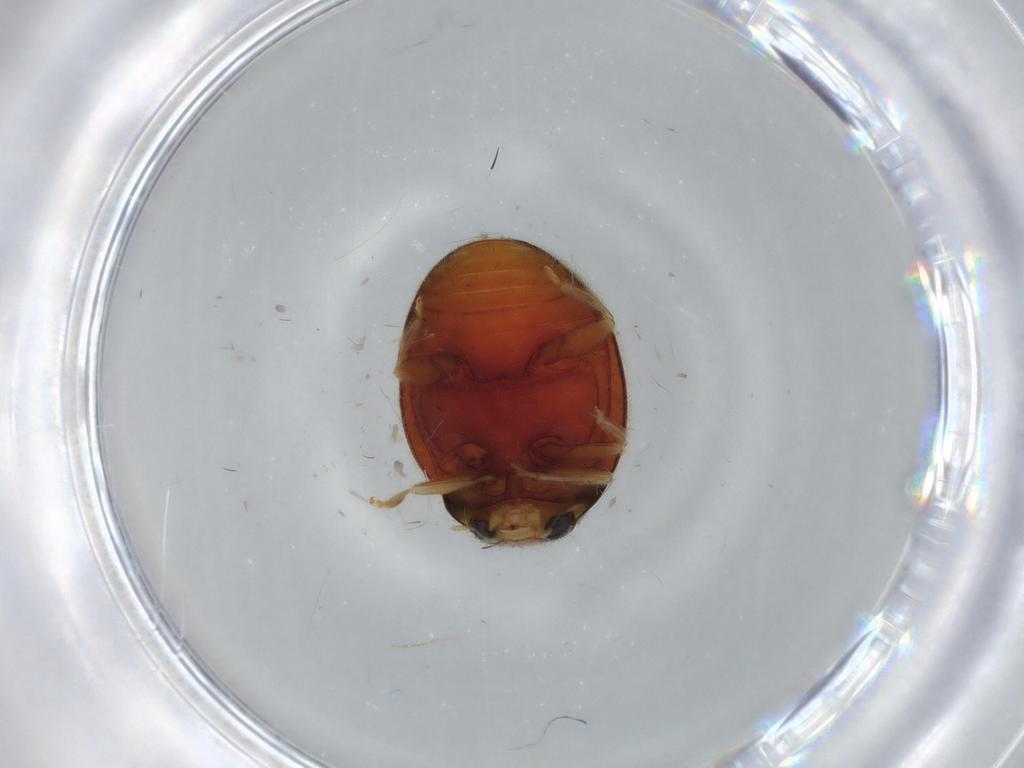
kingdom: Animalia
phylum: Arthropoda
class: Insecta
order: Coleoptera
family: Coccinellidae
